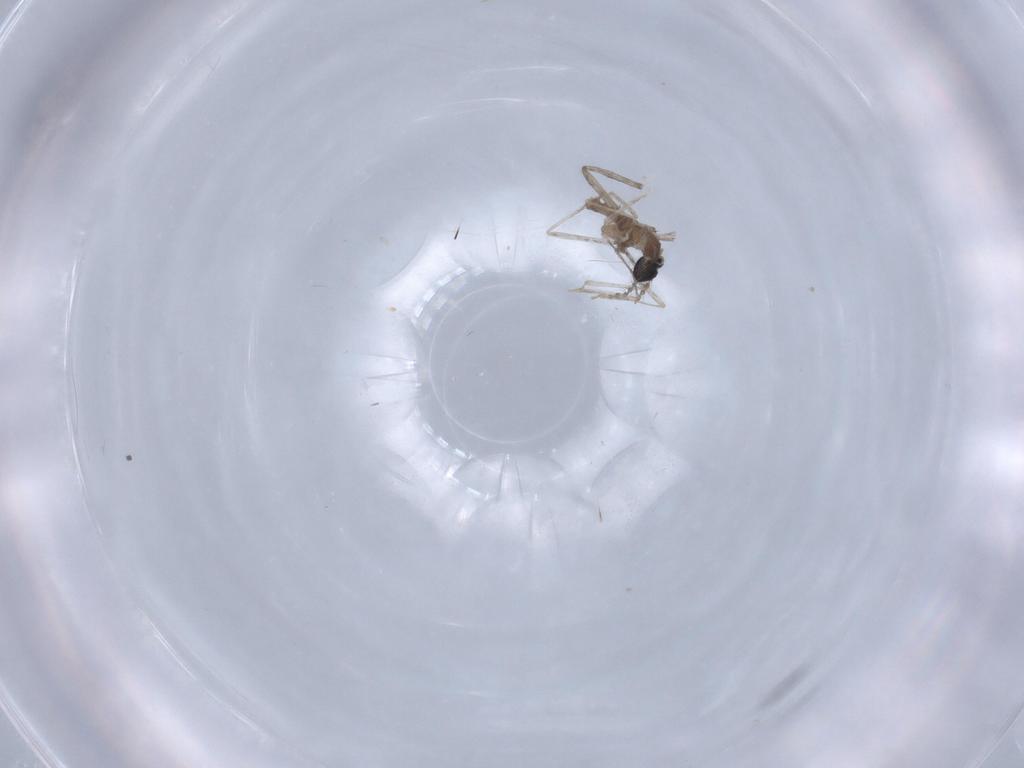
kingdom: Animalia
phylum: Arthropoda
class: Insecta
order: Diptera
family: Cecidomyiidae
